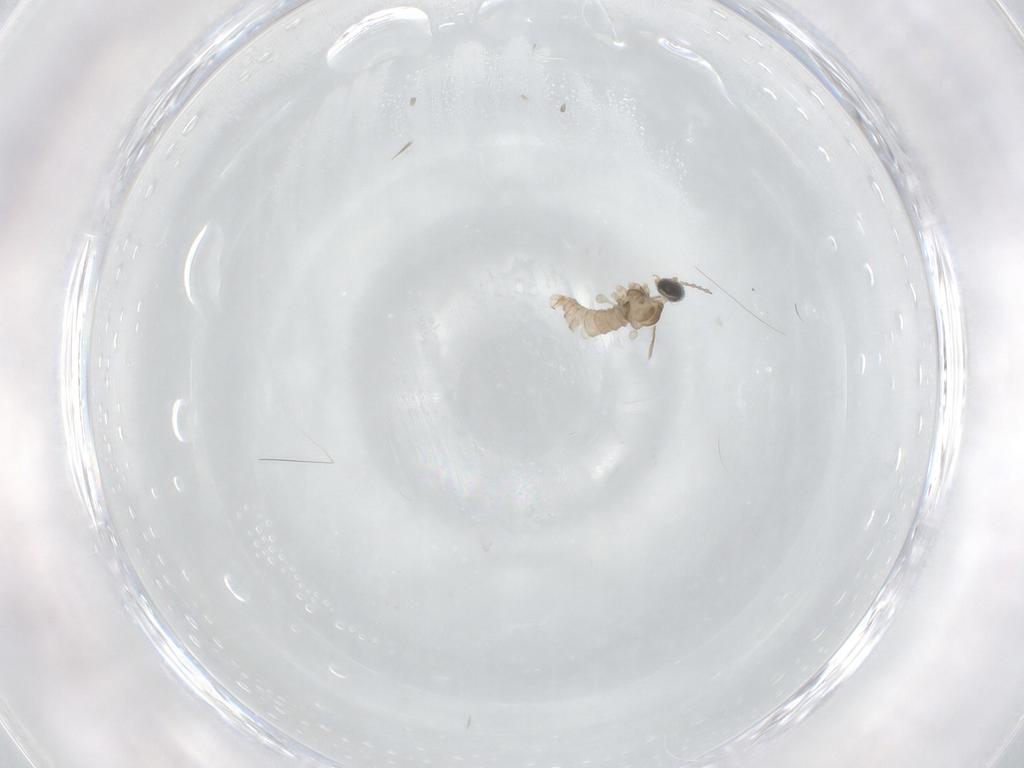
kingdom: Animalia
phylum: Arthropoda
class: Insecta
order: Diptera
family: Cecidomyiidae
